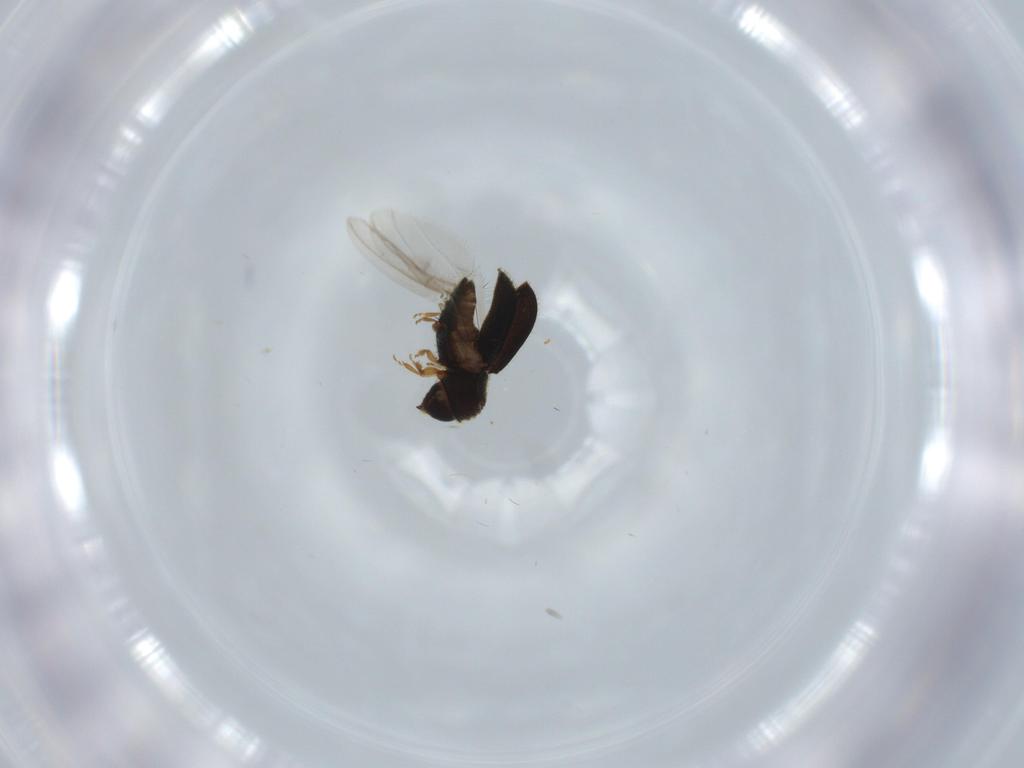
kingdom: Animalia
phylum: Arthropoda
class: Insecta
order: Coleoptera
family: Curculionidae
